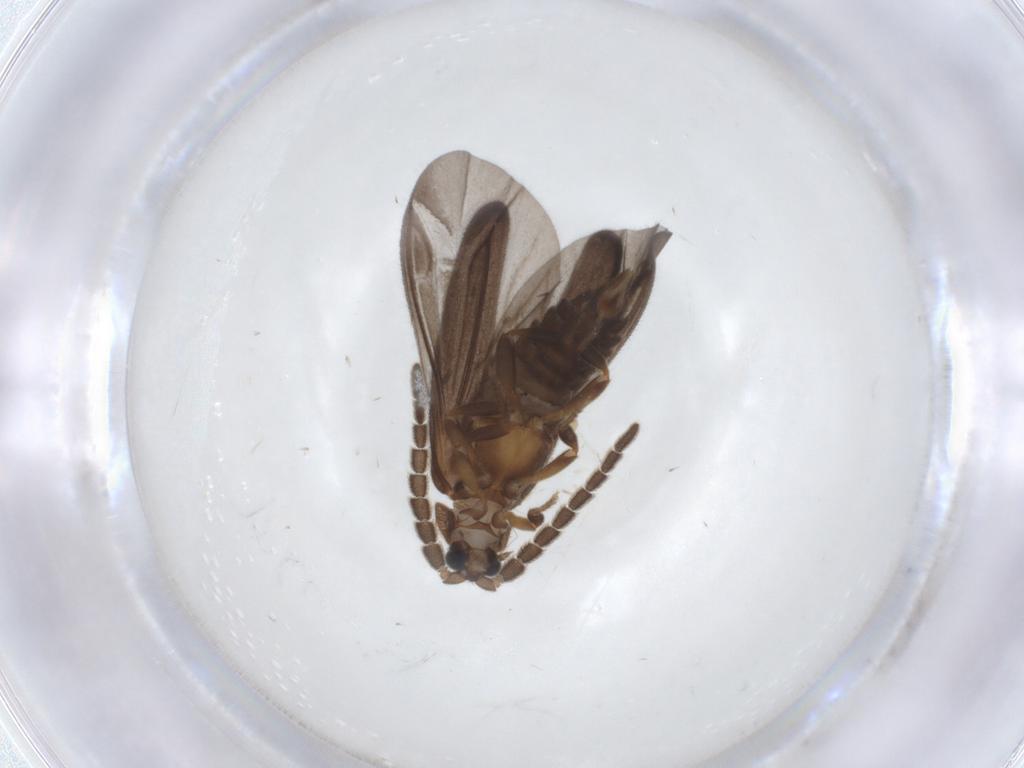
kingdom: Animalia
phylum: Arthropoda
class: Insecta
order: Coleoptera
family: Lycidae
